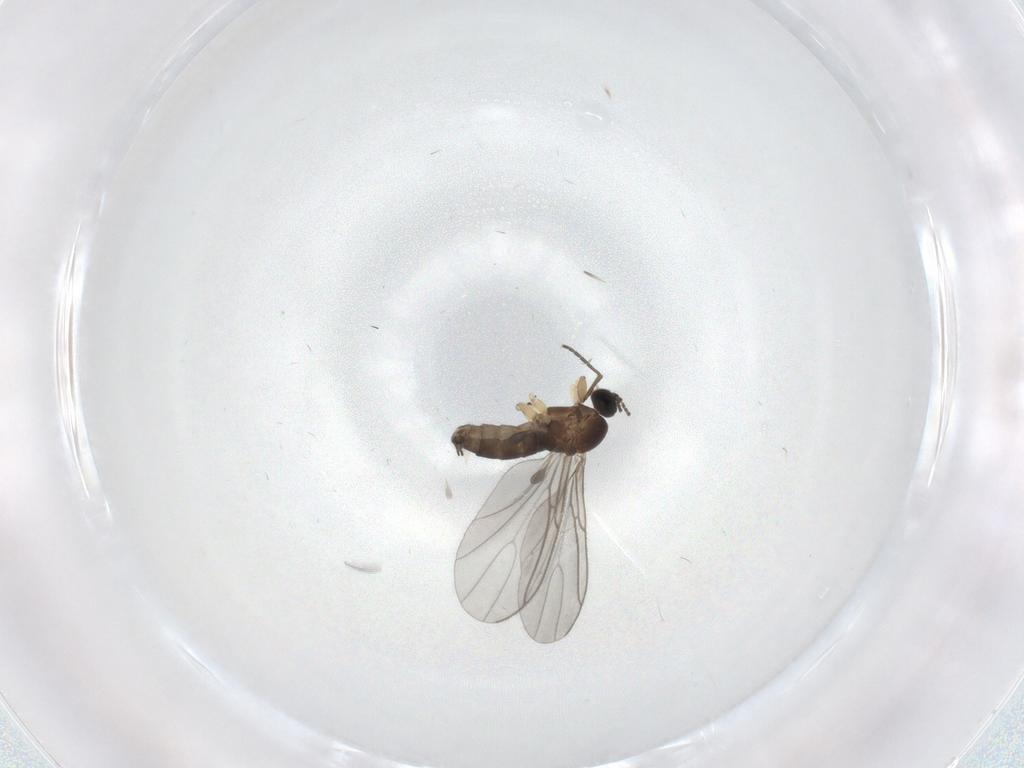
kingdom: Animalia
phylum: Arthropoda
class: Insecta
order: Diptera
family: Sciaridae
